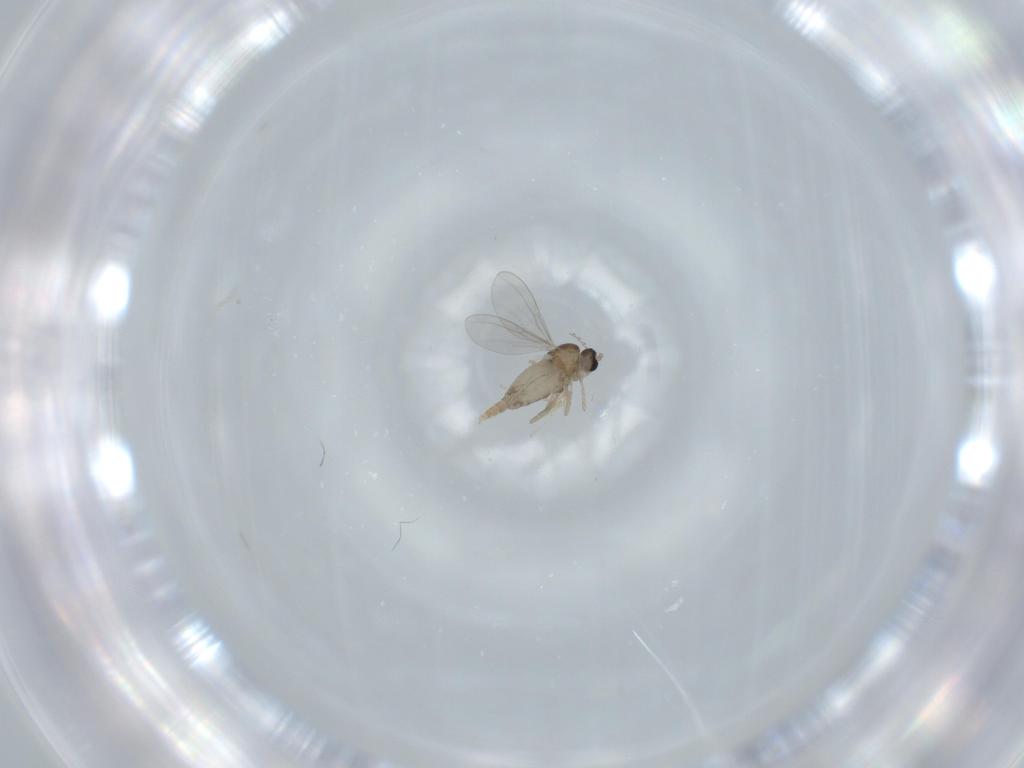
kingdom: Animalia
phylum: Arthropoda
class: Insecta
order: Diptera
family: Cecidomyiidae
